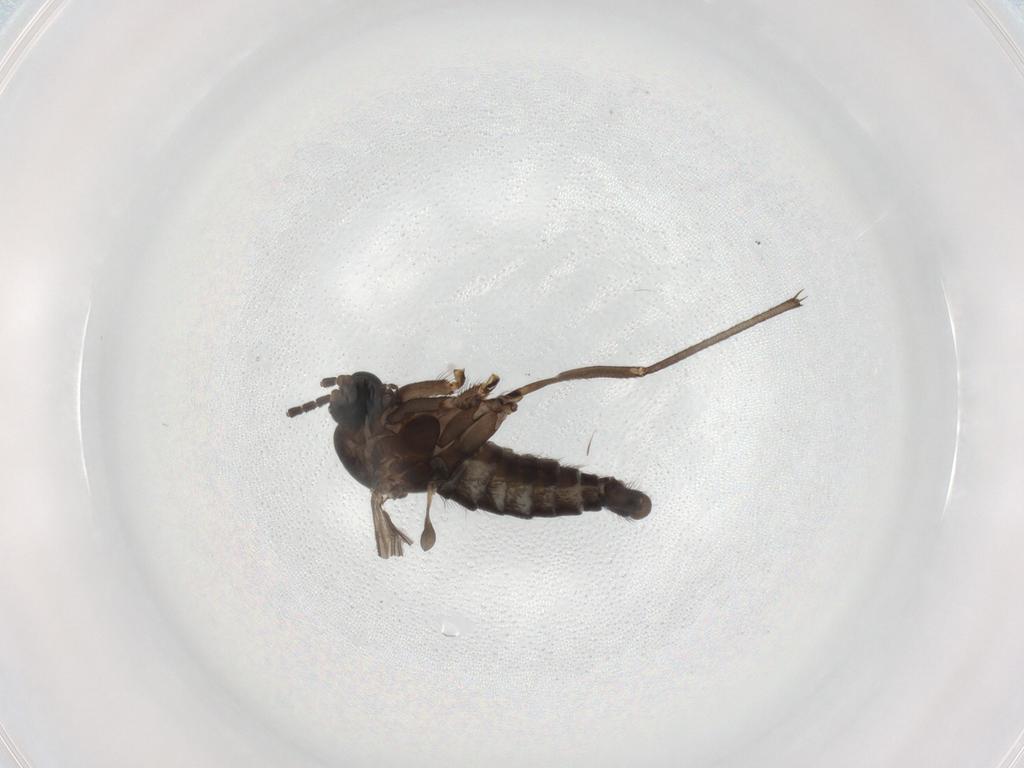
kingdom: Animalia
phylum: Arthropoda
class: Insecta
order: Diptera
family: Sciaridae
